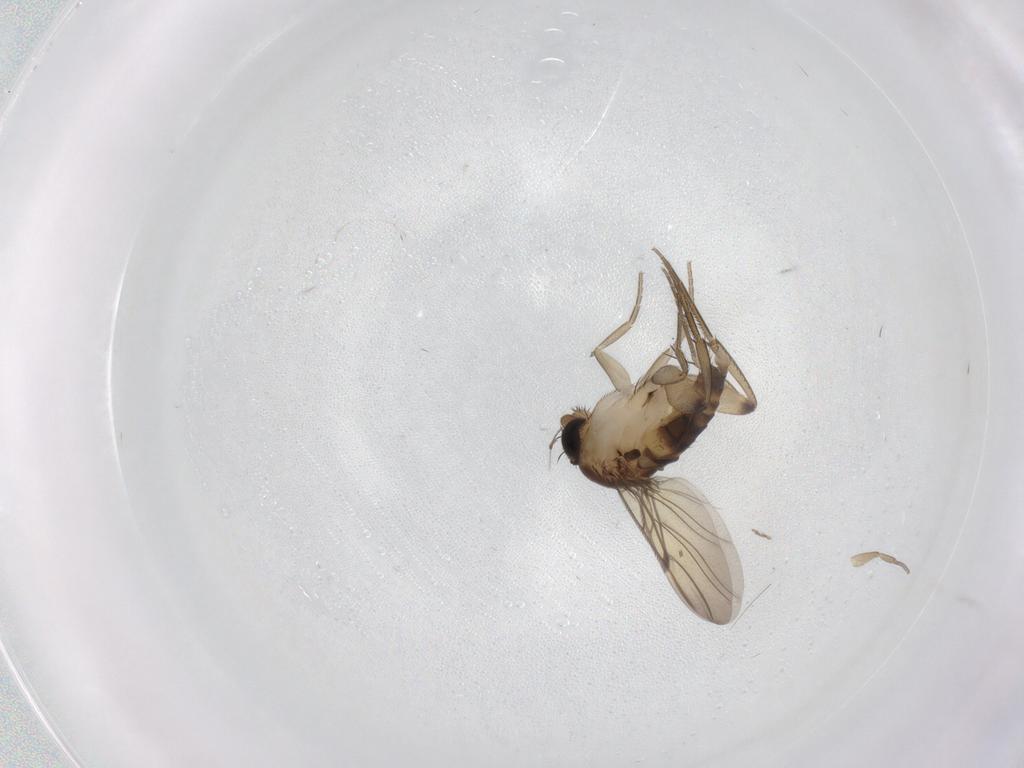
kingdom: Animalia
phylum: Arthropoda
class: Insecta
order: Diptera
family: Phoridae
